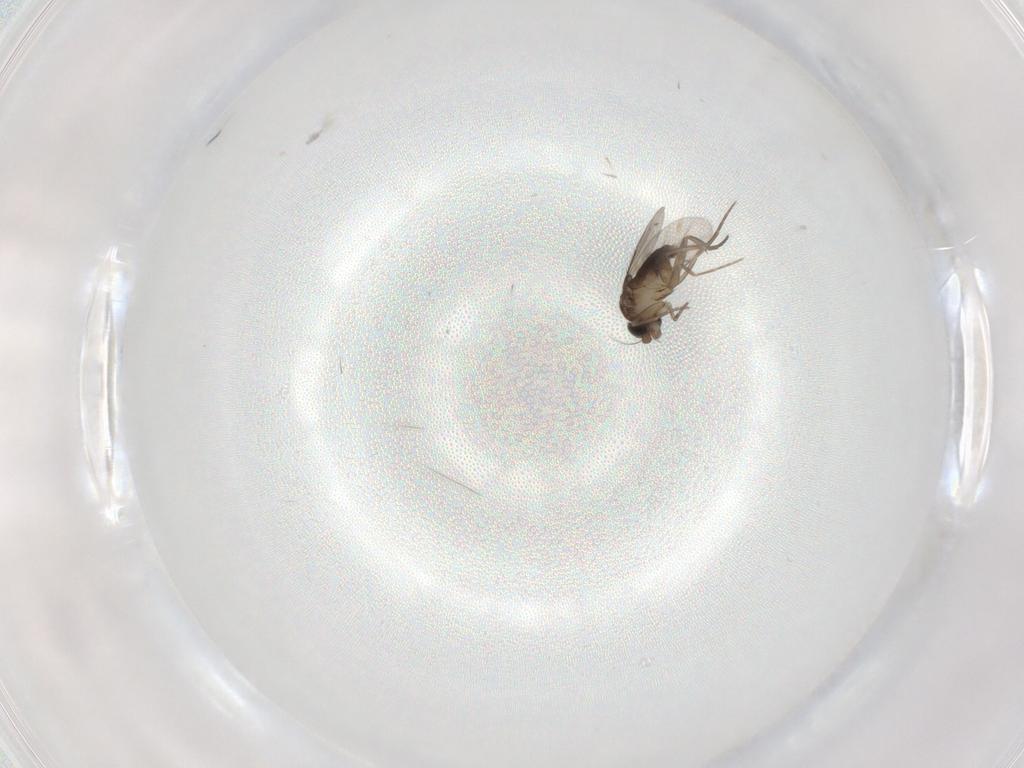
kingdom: Animalia
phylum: Arthropoda
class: Insecta
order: Diptera
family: Phoridae
